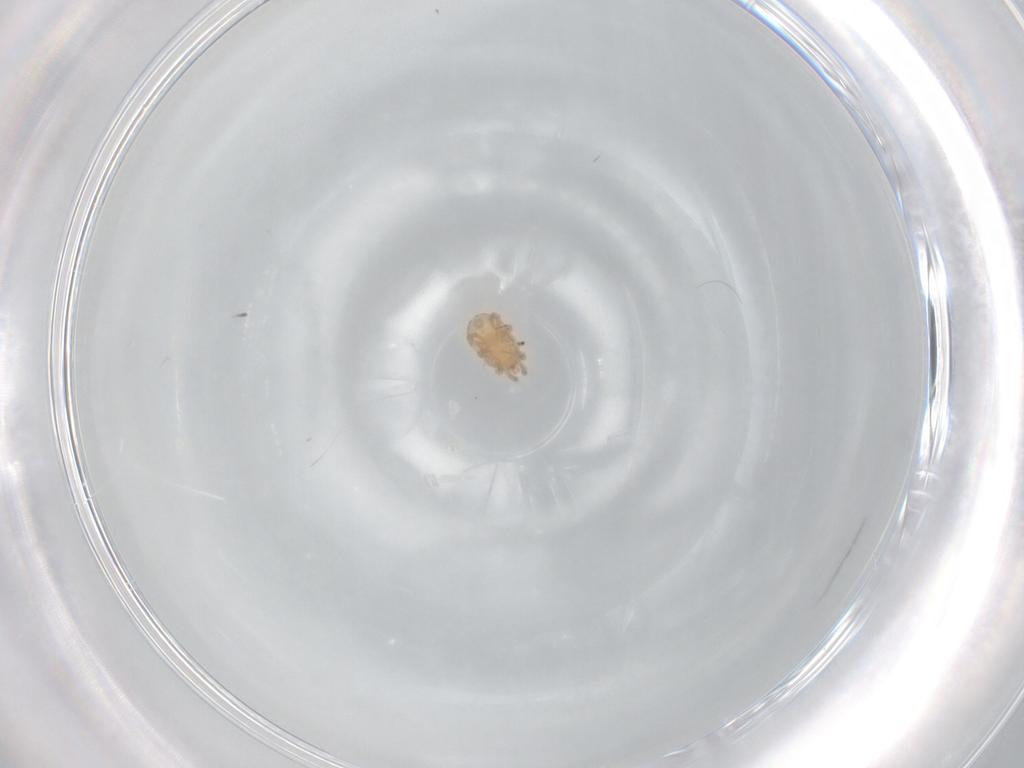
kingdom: Animalia
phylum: Arthropoda
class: Arachnida
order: Mesostigmata
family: Melicharidae
